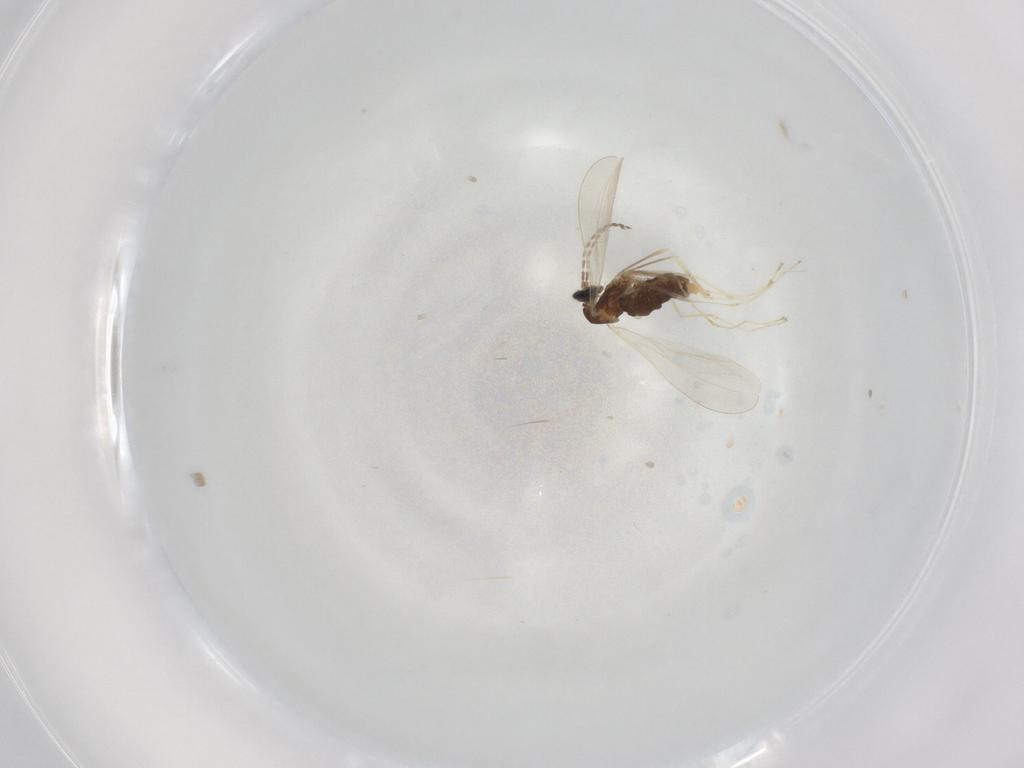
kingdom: Animalia
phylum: Arthropoda
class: Insecta
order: Diptera
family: Cecidomyiidae
